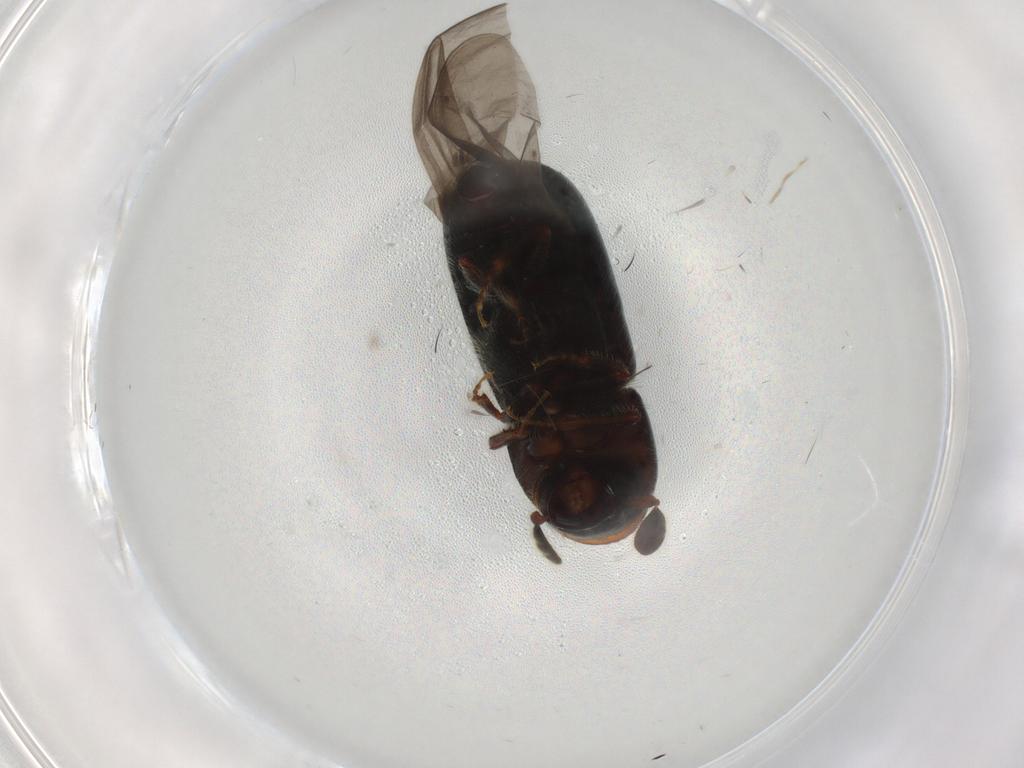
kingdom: Animalia
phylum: Arthropoda
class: Insecta
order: Coleoptera
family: Curculionidae
